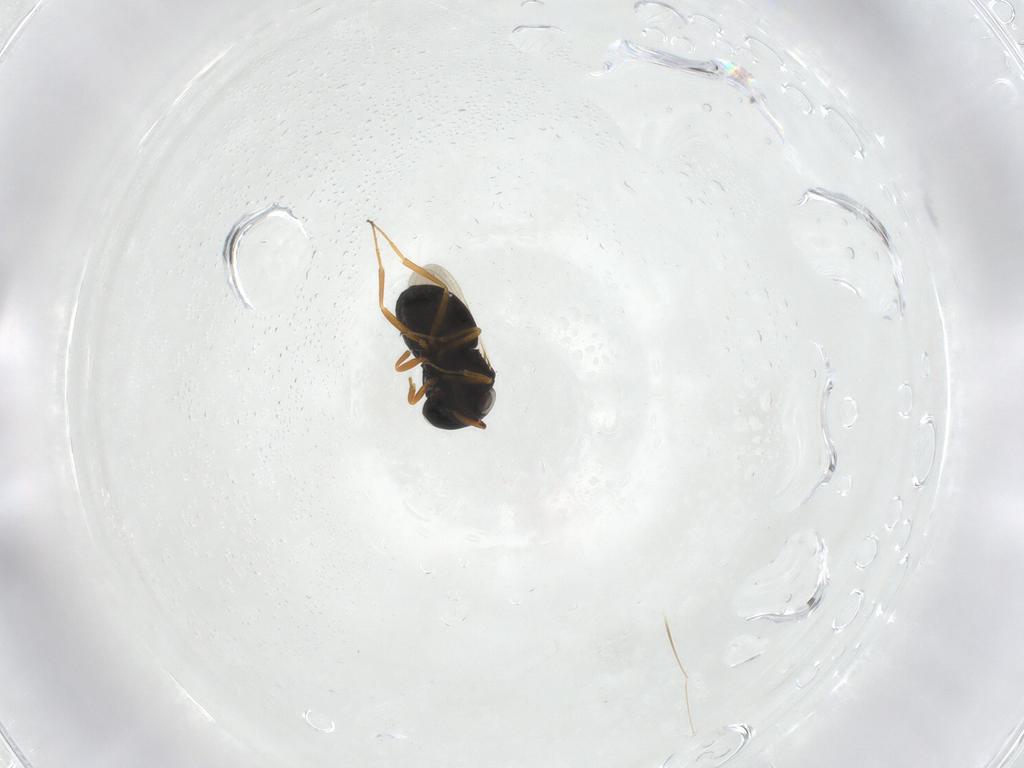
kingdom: Animalia
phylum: Arthropoda
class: Insecta
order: Hymenoptera
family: Scelionidae
